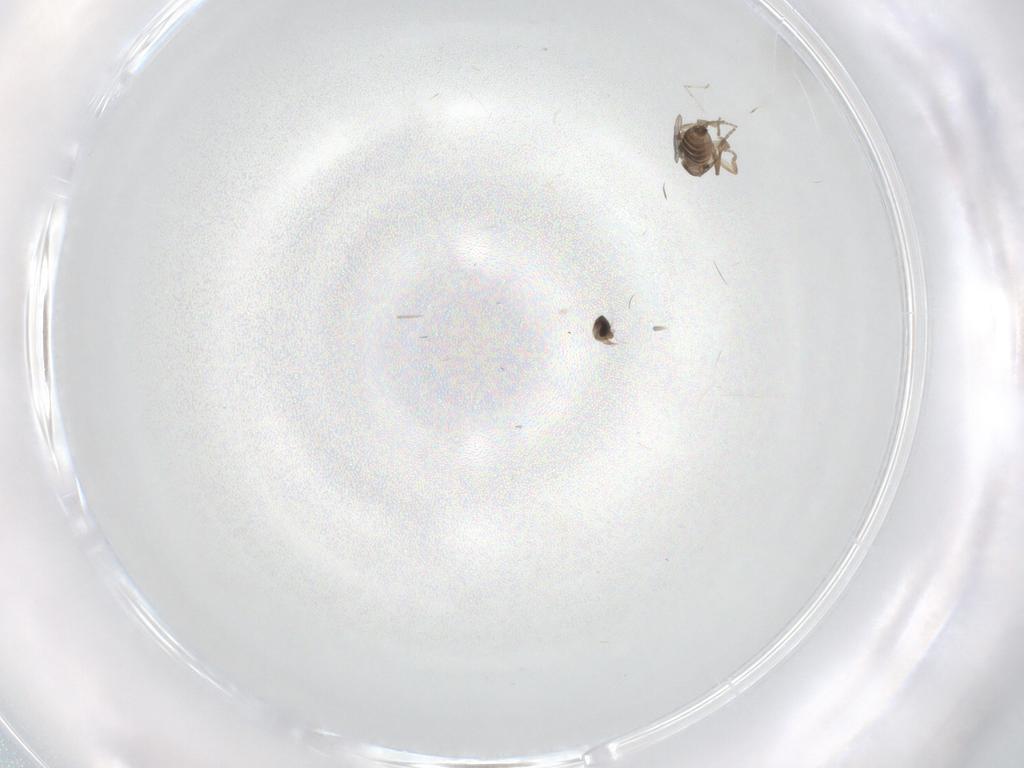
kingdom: Animalia
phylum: Arthropoda
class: Insecta
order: Diptera
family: Phoridae
